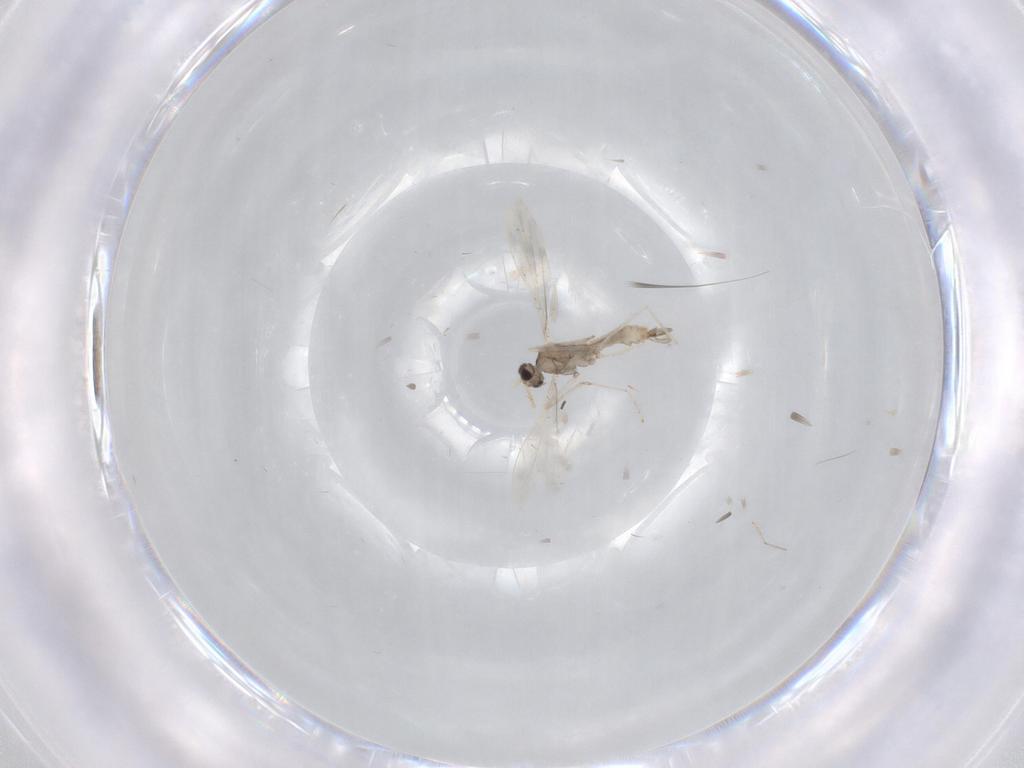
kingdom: Animalia
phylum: Arthropoda
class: Insecta
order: Diptera
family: Cecidomyiidae
